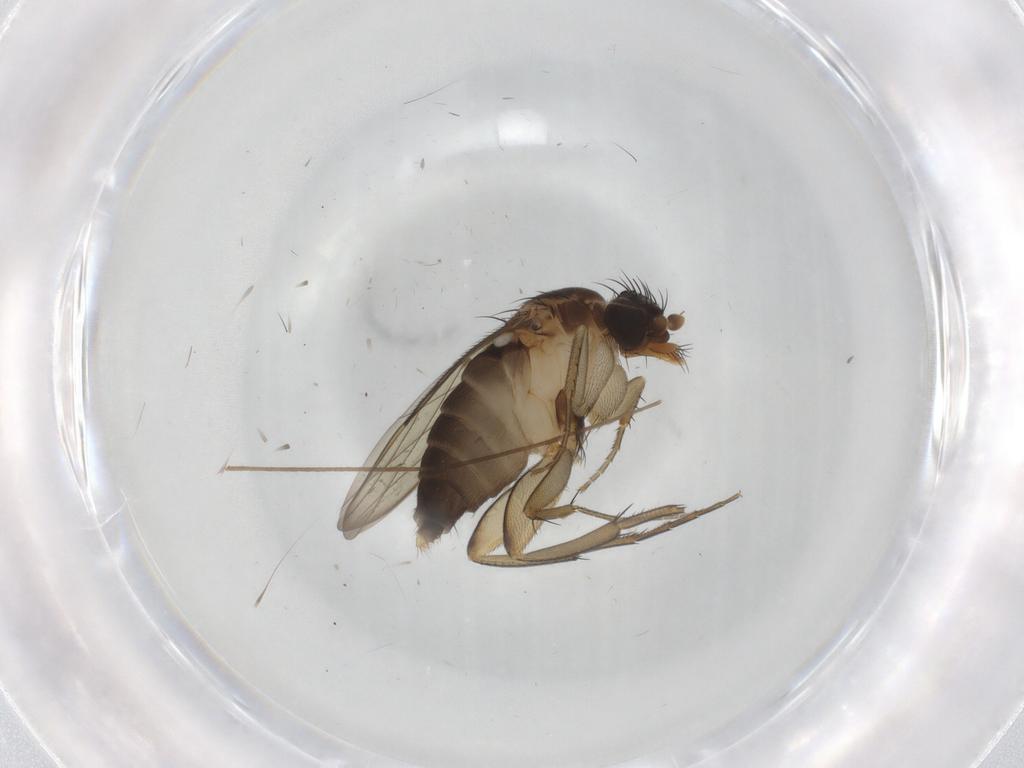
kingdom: Animalia
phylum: Arthropoda
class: Insecta
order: Diptera
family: Chironomidae
